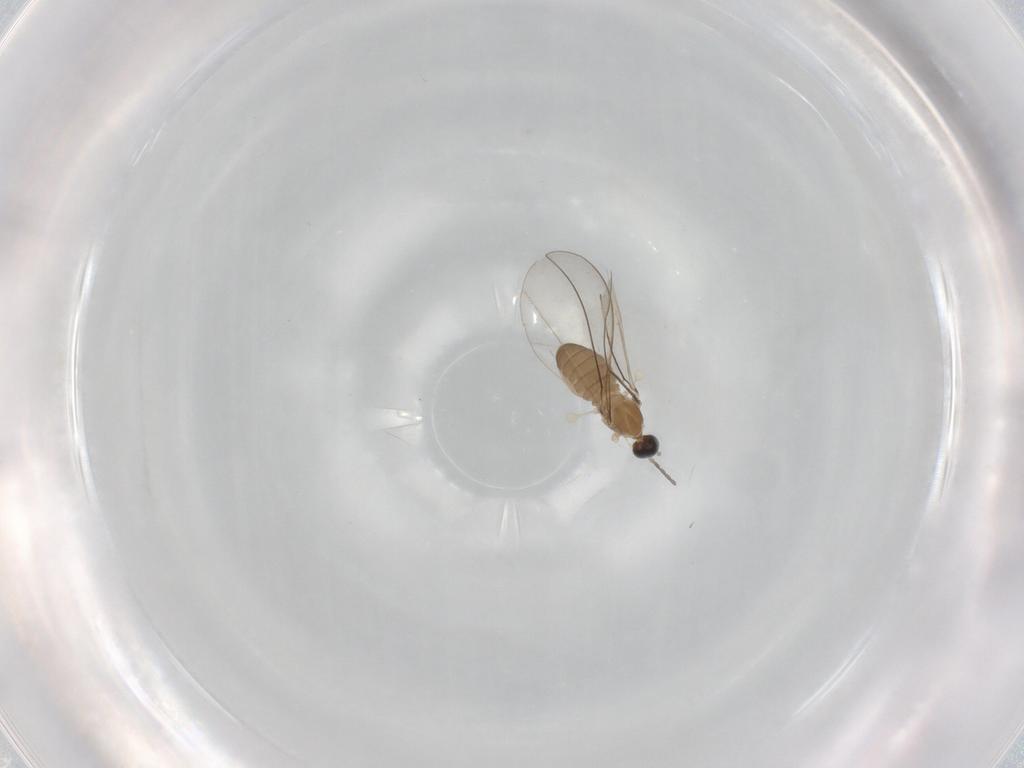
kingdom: Animalia
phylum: Arthropoda
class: Insecta
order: Diptera
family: Cecidomyiidae
